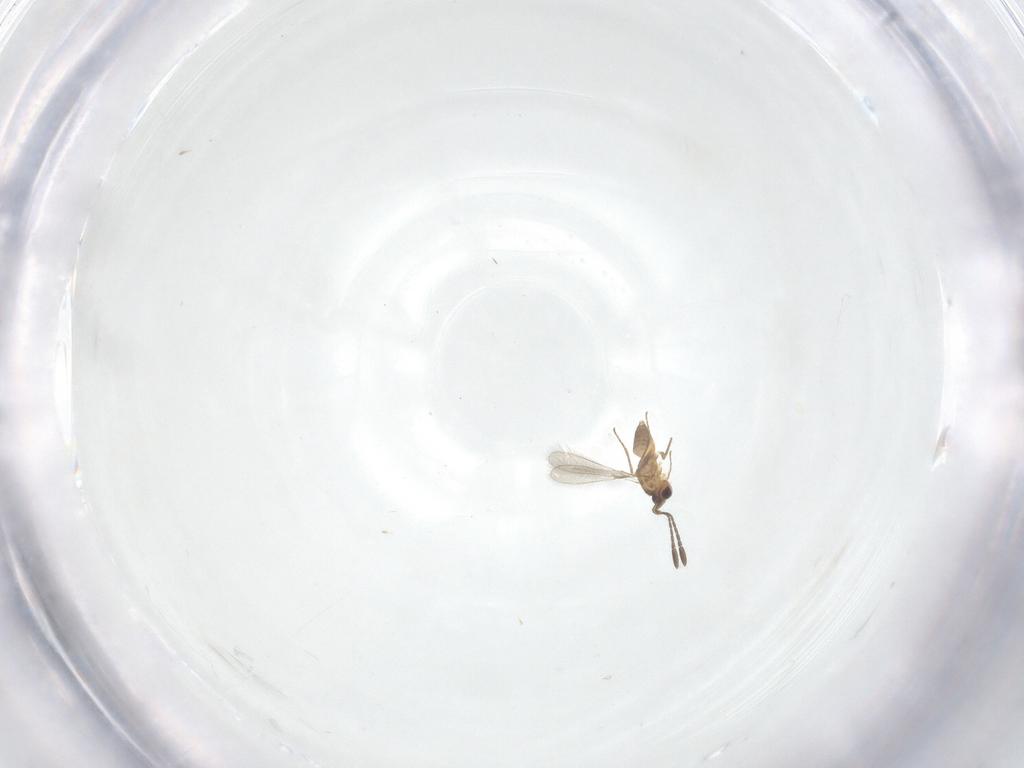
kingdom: Animalia
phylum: Arthropoda
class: Insecta
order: Hymenoptera
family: Mymaridae
